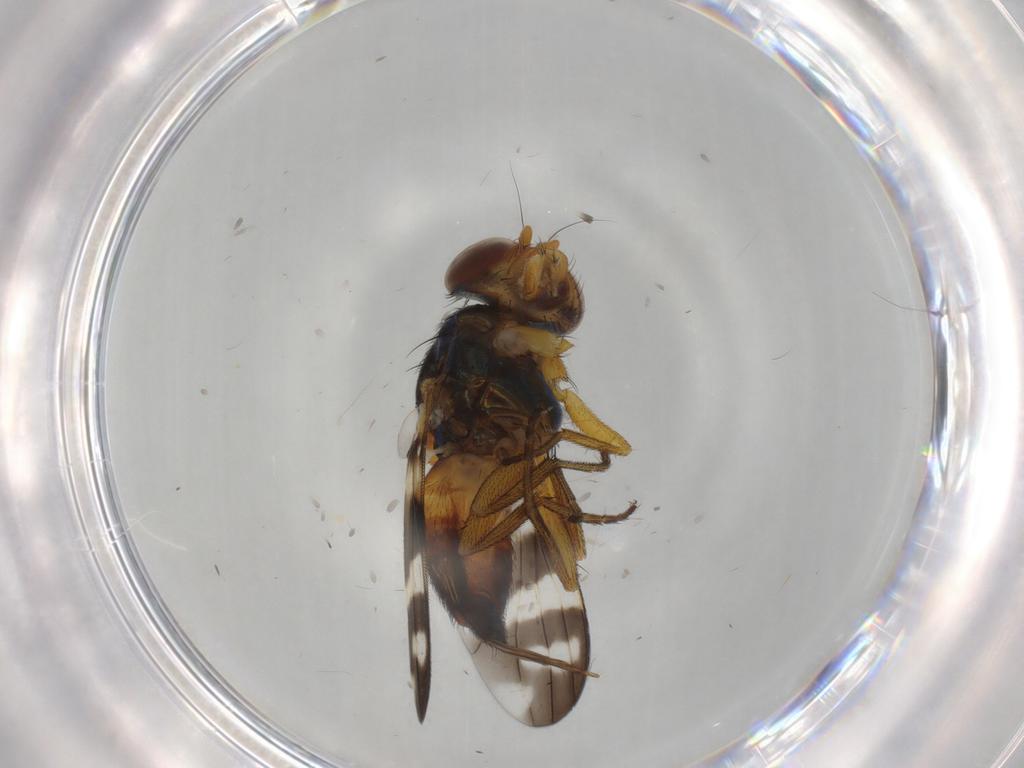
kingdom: Animalia
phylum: Arthropoda
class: Insecta
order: Diptera
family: Ulidiidae
